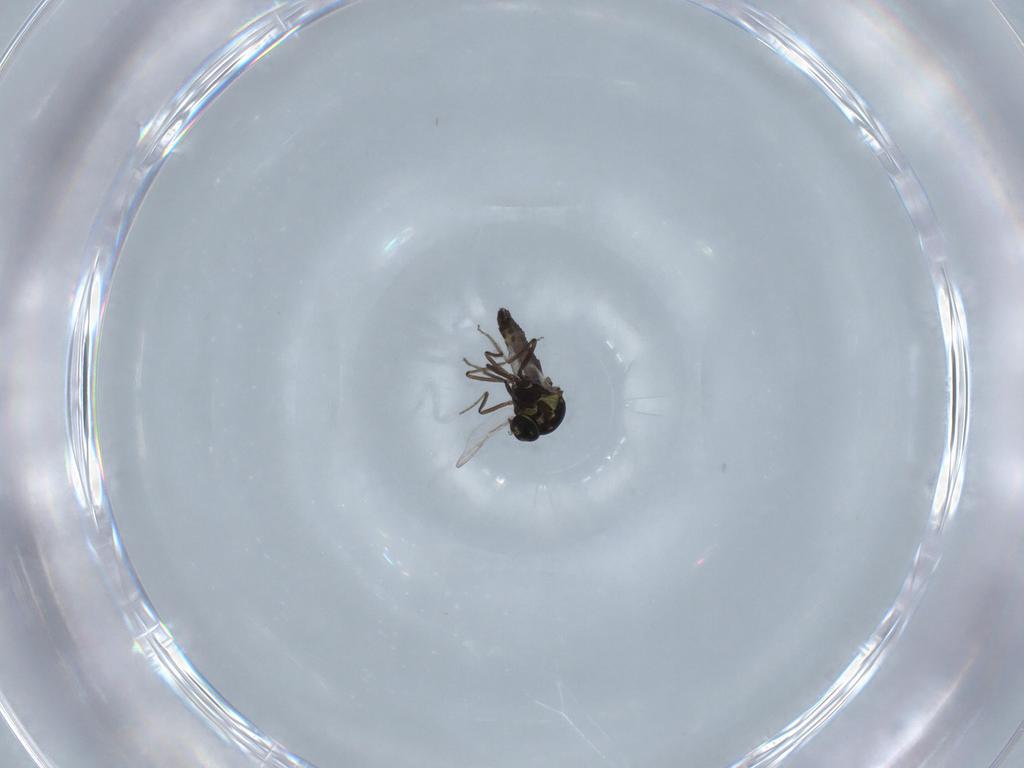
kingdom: Animalia
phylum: Arthropoda
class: Insecta
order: Diptera
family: Ceratopogonidae
